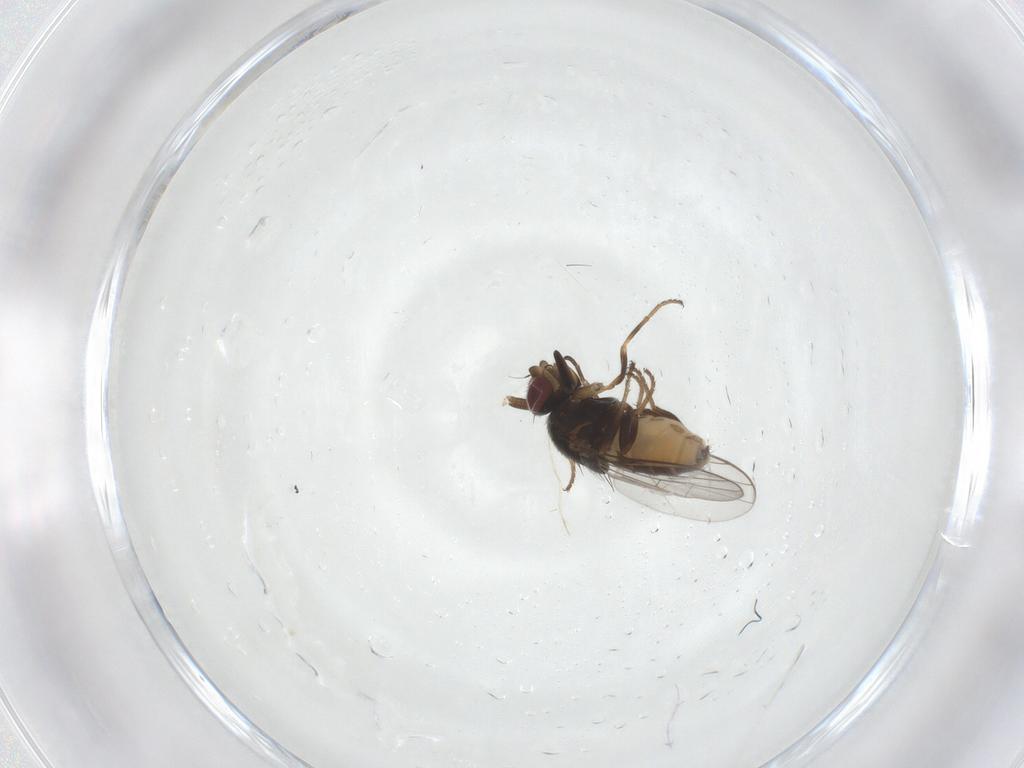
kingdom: Animalia
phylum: Arthropoda
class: Insecta
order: Diptera
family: Chloropidae
